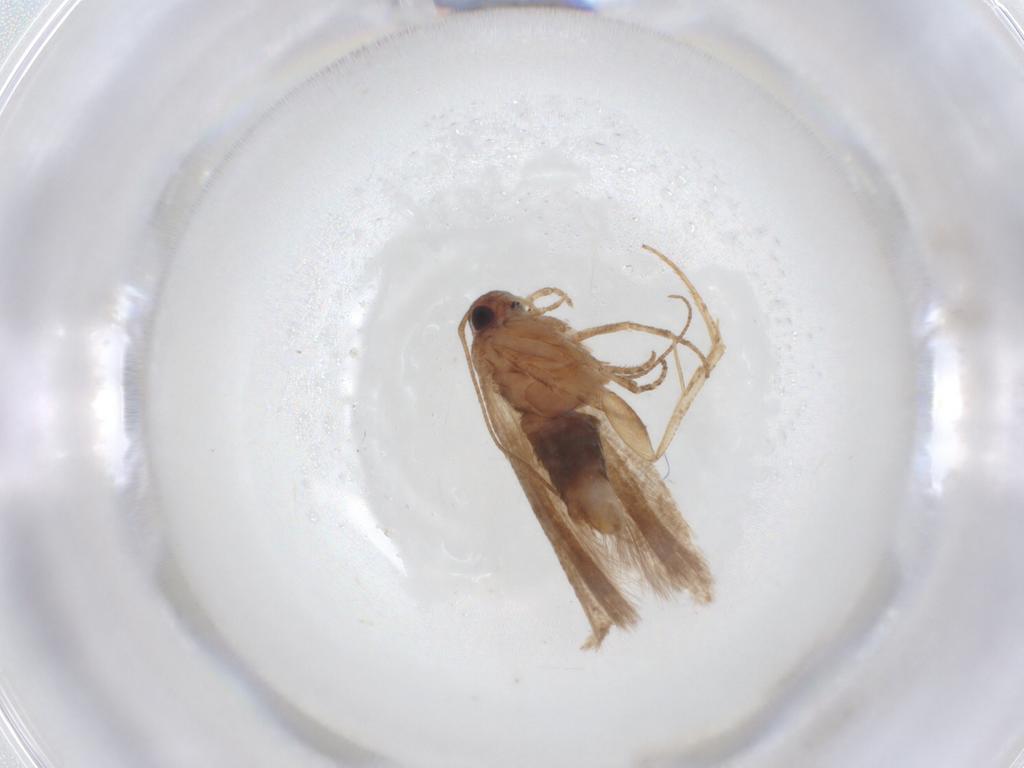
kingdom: Animalia
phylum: Arthropoda
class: Insecta
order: Lepidoptera
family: Gelechiidae
